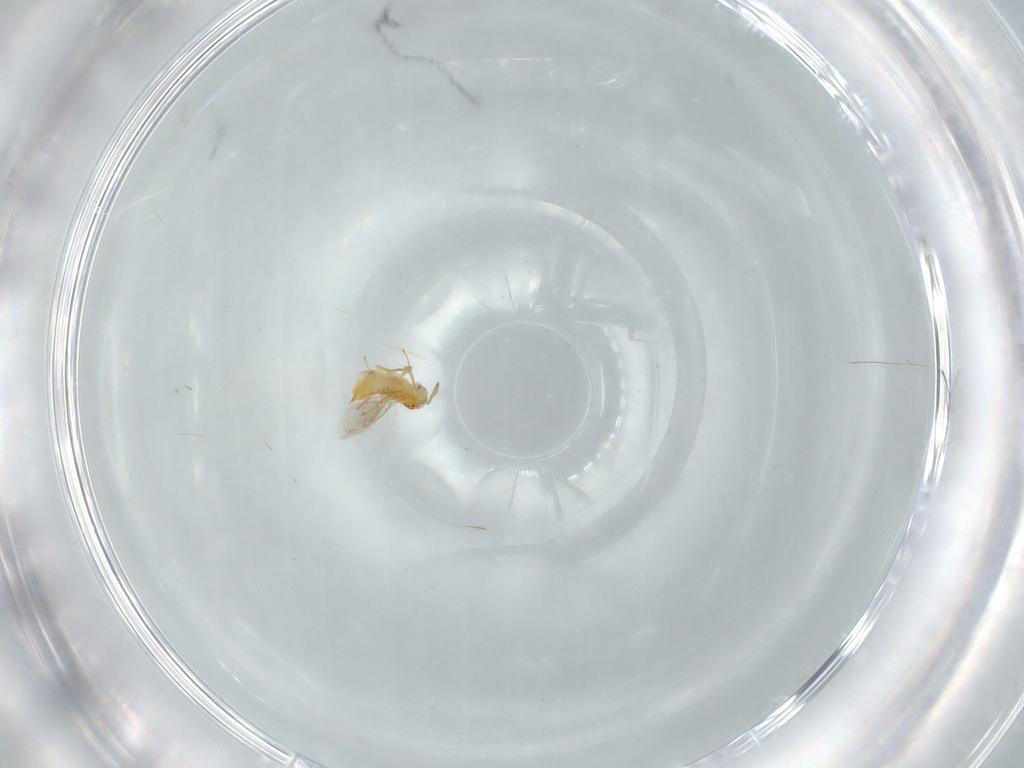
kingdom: Animalia
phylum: Arthropoda
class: Insecta
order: Hymenoptera
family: Aphelinidae
